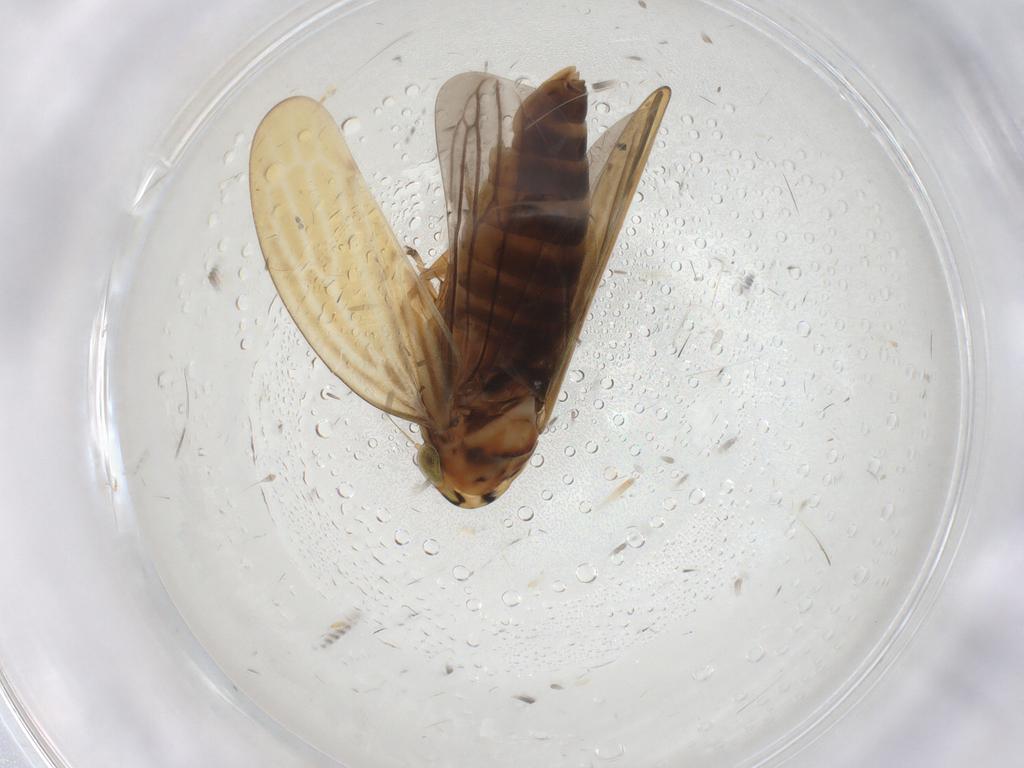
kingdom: Animalia
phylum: Arthropoda
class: Insecta
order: Hemiptera
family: Cicadellidae
